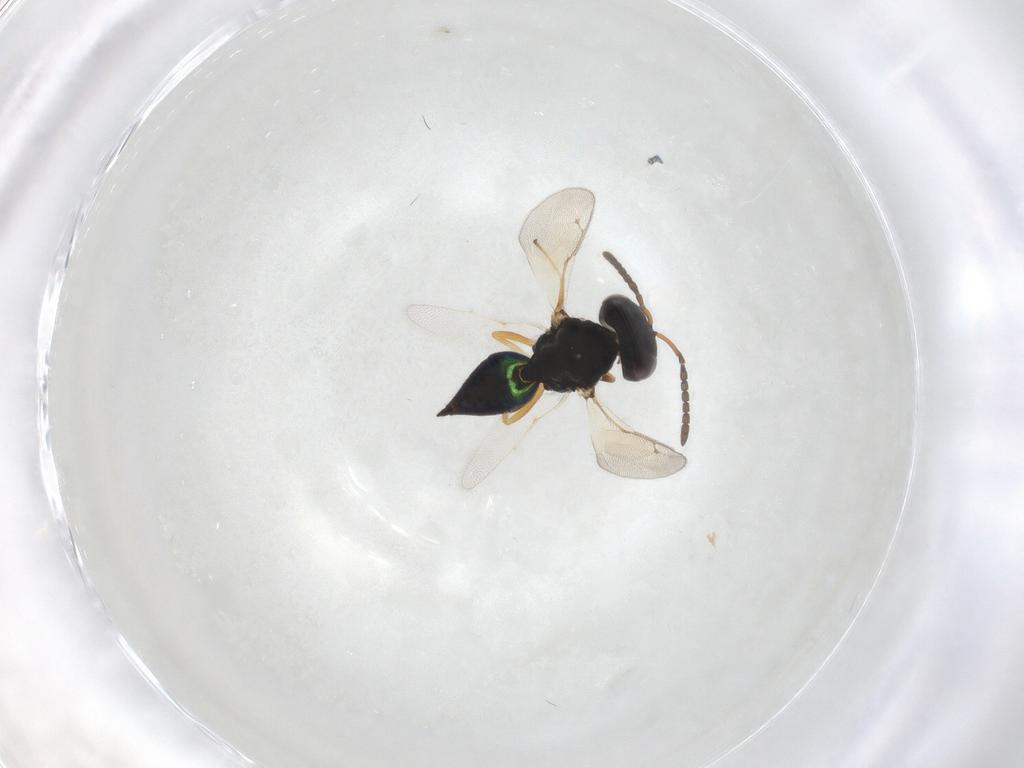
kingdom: Animalia
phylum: Arthropoda
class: Insecta
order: Hymenoptera
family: Pteromalidae
